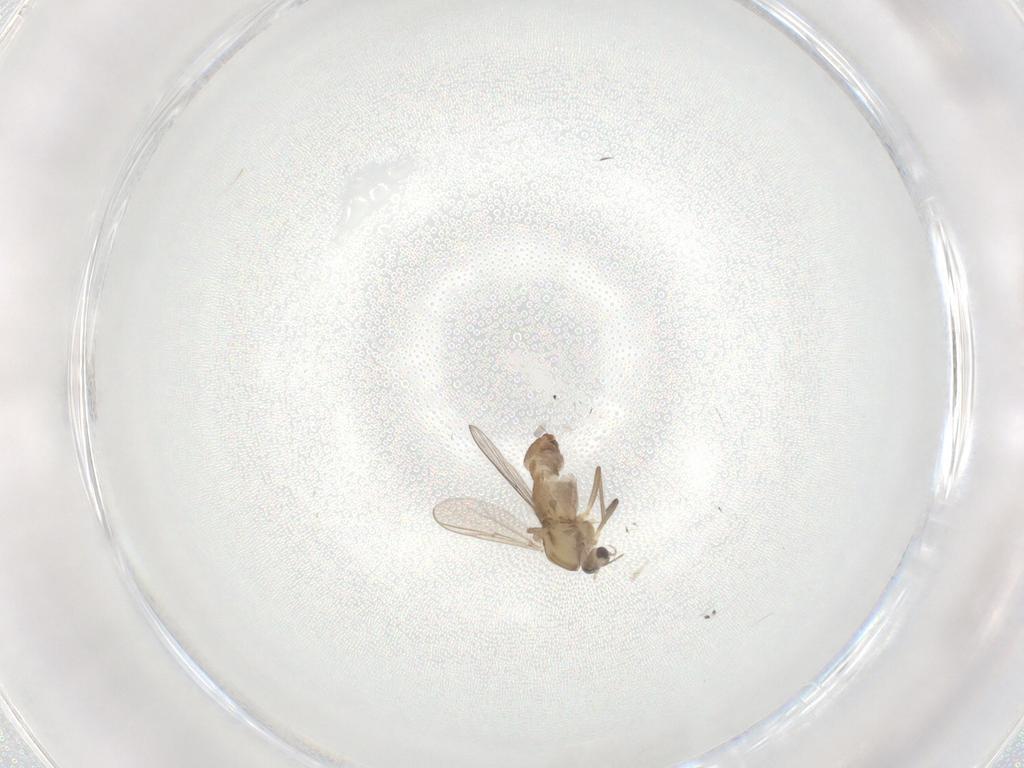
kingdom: Animalia
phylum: Arthropoda
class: Insecta
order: Diptera
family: Chironomidae
